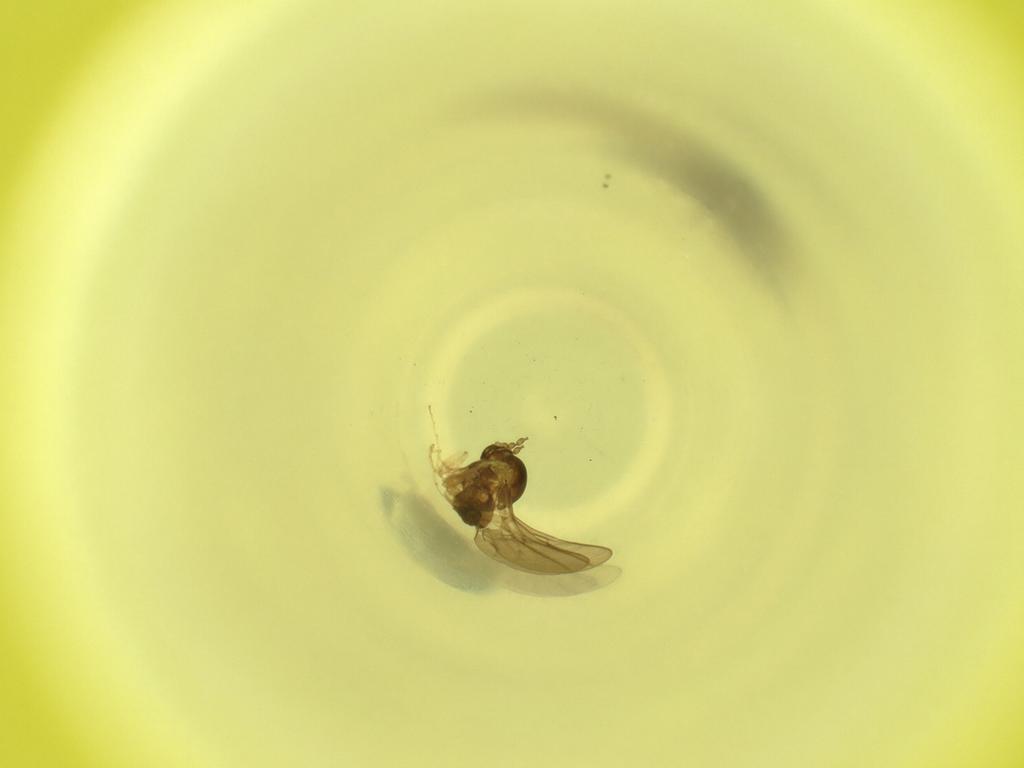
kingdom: Animalia
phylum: Arthropoda
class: Insecta
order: Diptera
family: Cecidomyiidae
